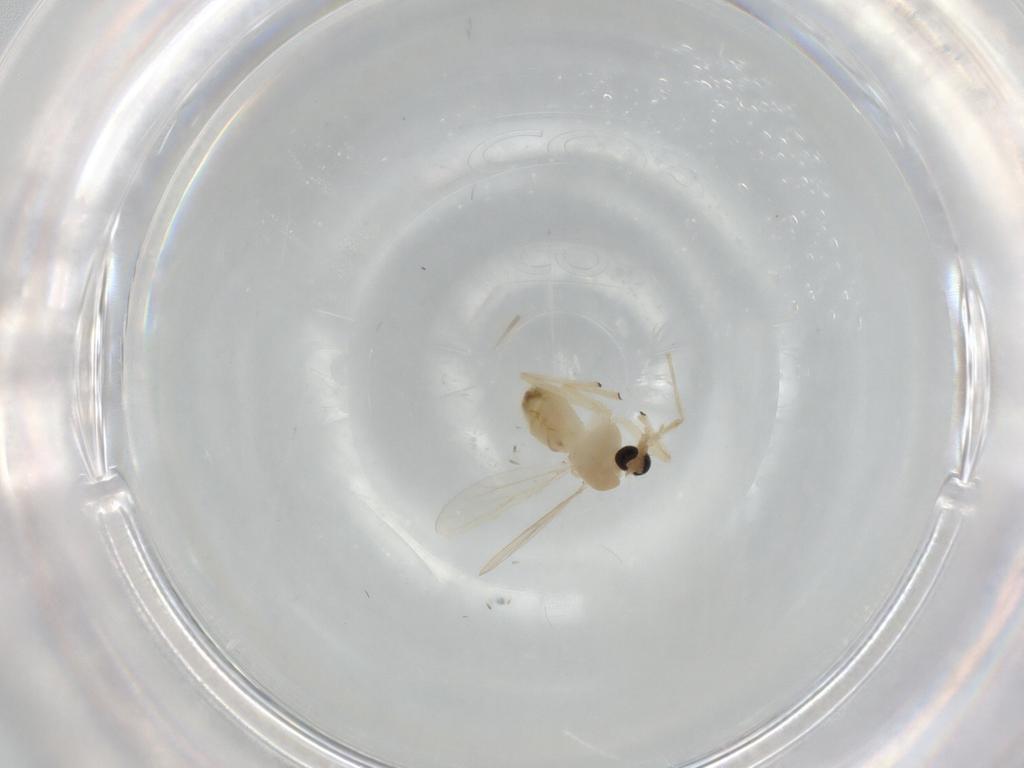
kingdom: Animalia
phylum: Arthropoda
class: Insecta
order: Diptera
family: Chironomidae
